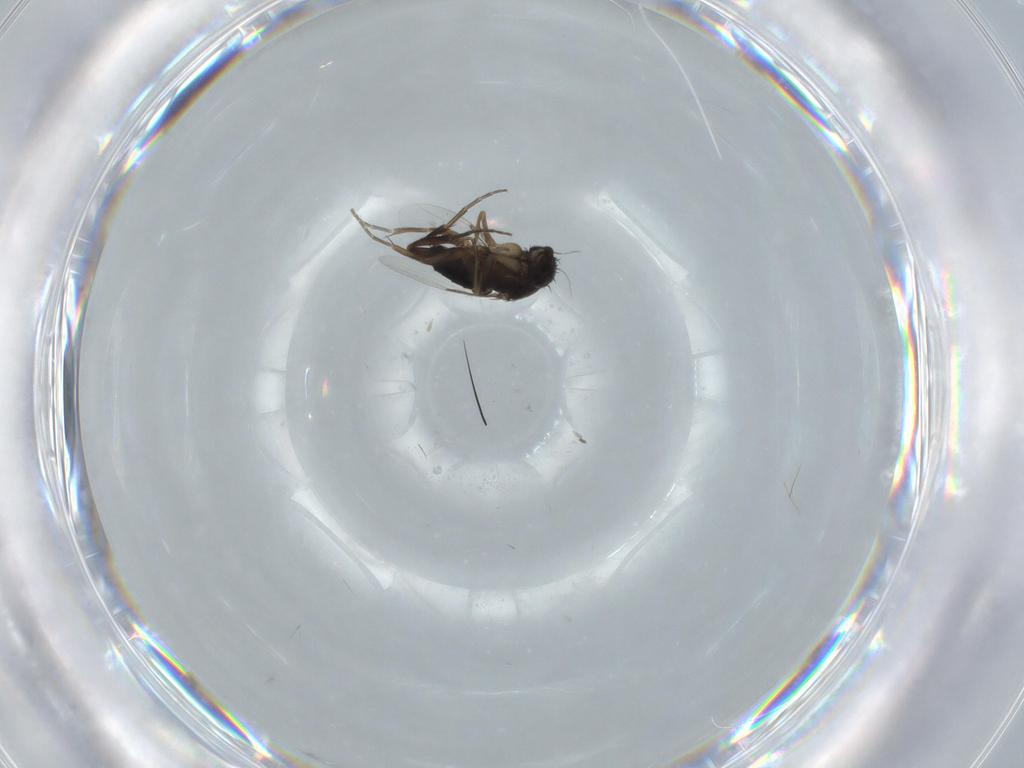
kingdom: Animalia
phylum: Arthropoda
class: Insecta
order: Diptera
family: Phoridae
